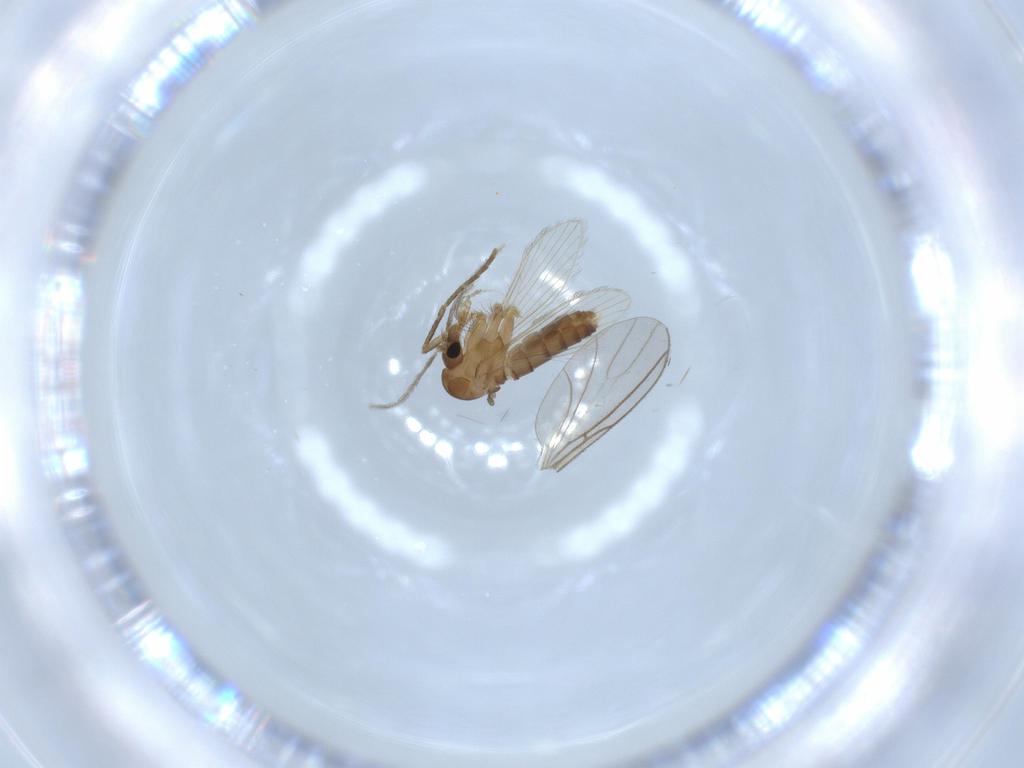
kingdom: Animalia
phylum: Arthropoda
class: Insecta
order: Diptera
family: Psychodidae
